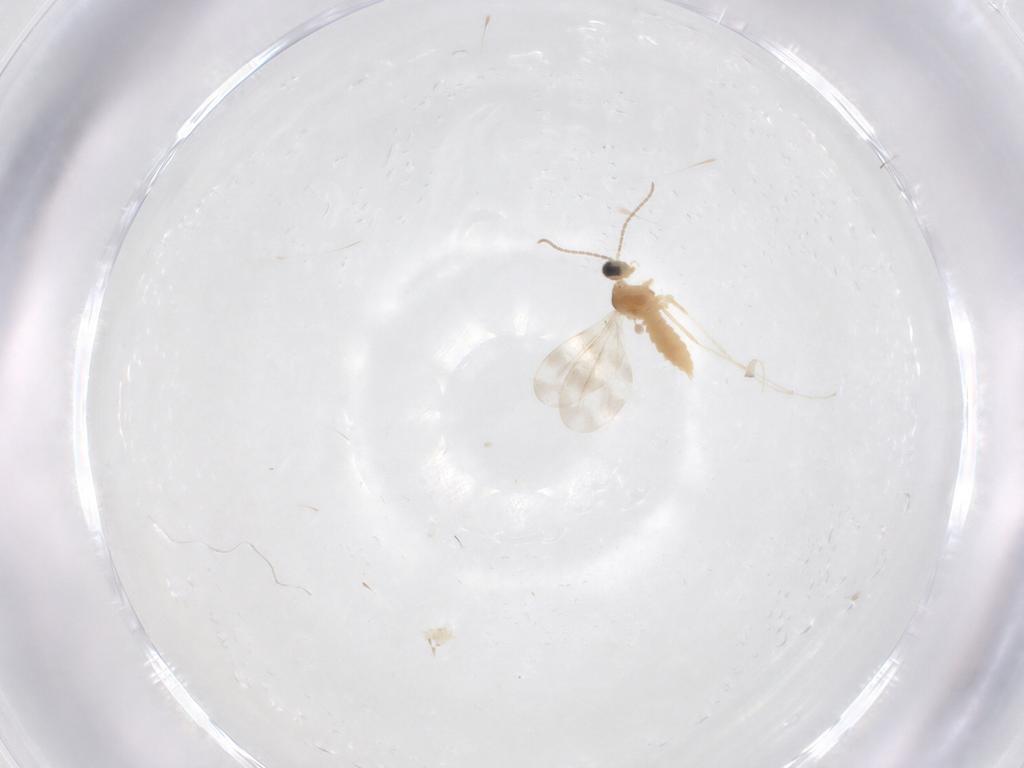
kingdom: Animalia
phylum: Arthropoda
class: Insecta
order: Diptera
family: Cecidomyiidae
